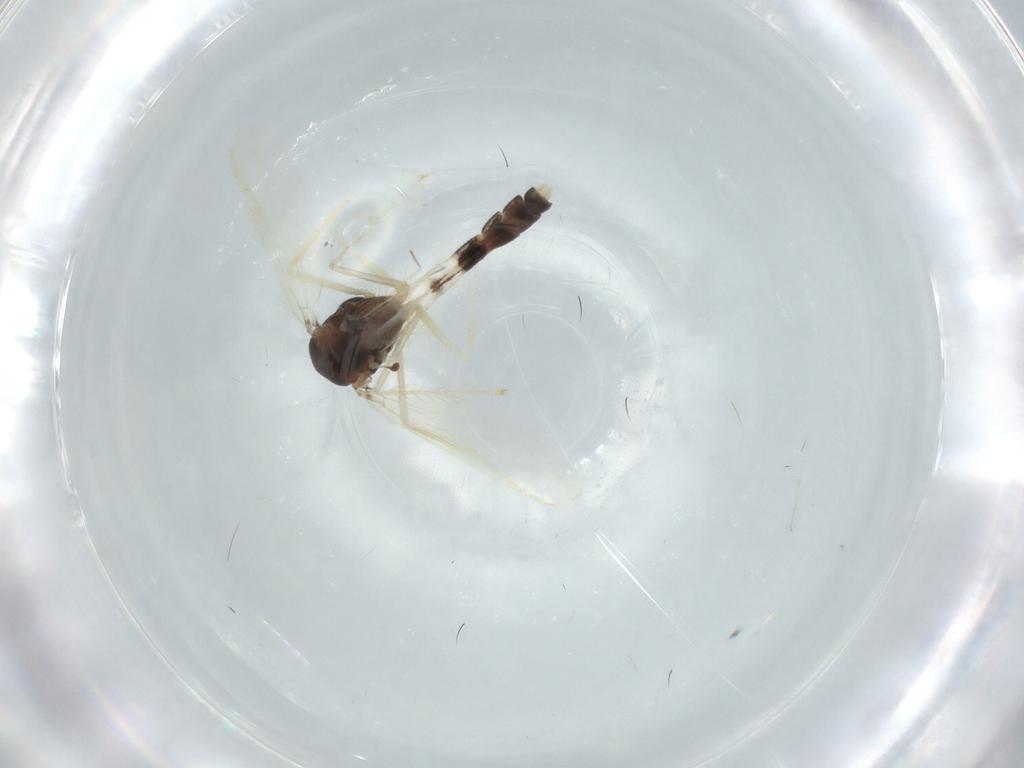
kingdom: Animalia
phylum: Arthropoda
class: Insecta
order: Diptera
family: Chironomidae
